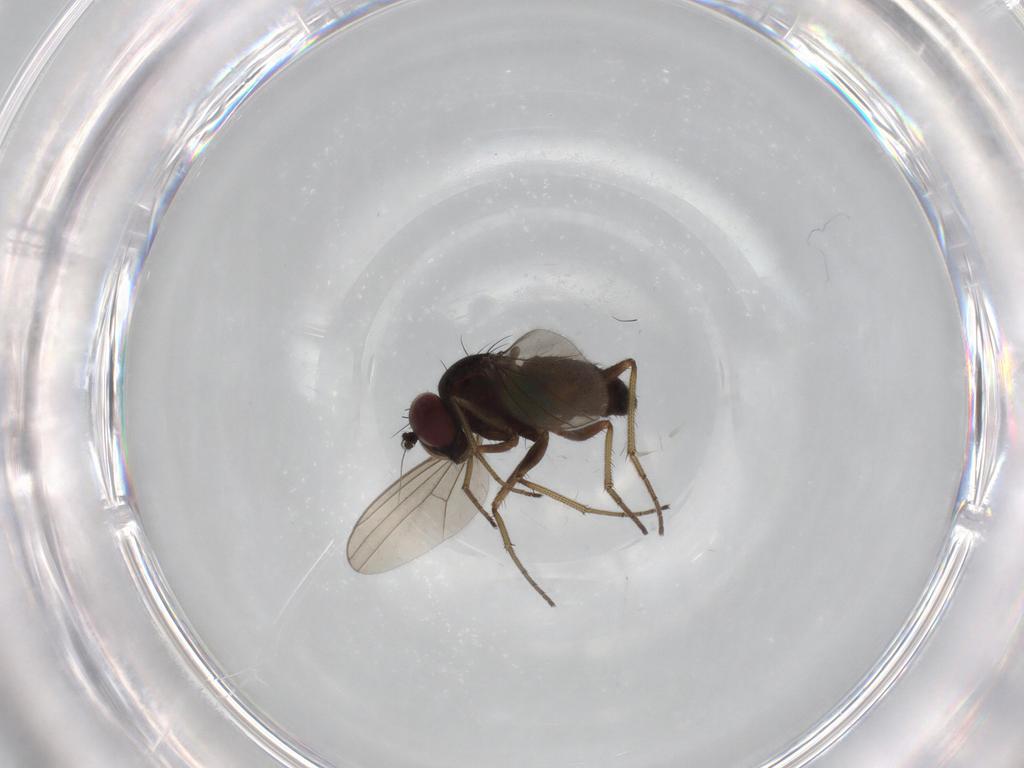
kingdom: Animalia
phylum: Arthropoda
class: Insecta
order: Diptera
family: Dolichopodidae
